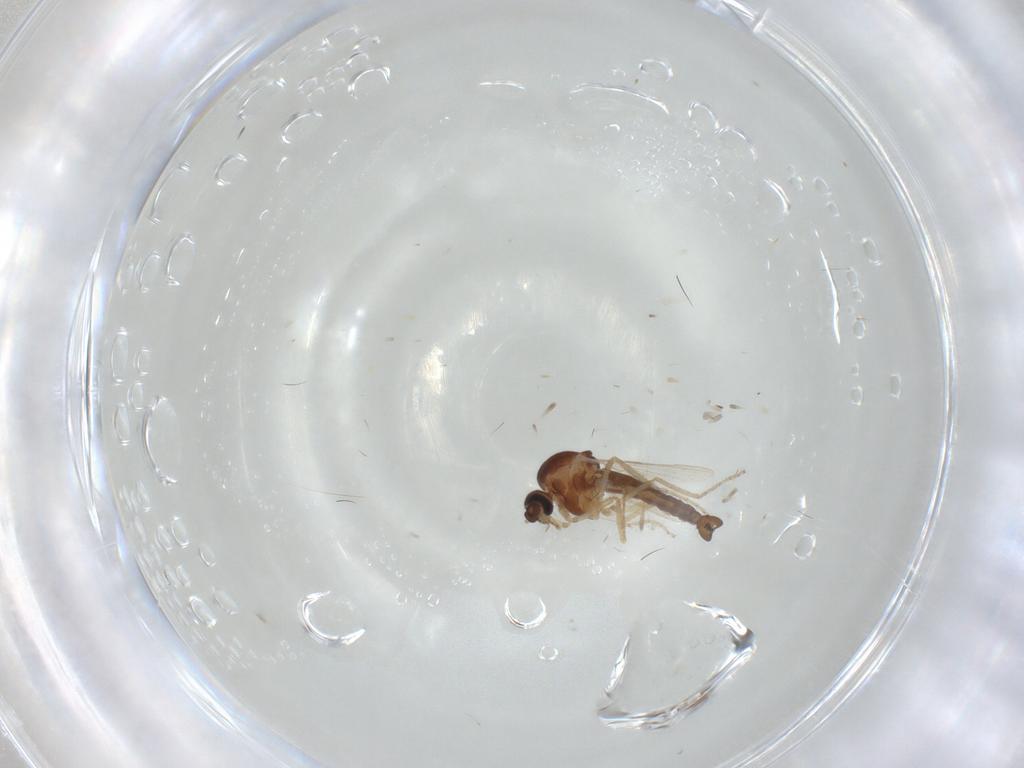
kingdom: Animalia
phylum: Arthropoda
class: Insecta
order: Diptera
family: Ceratopogonidae
